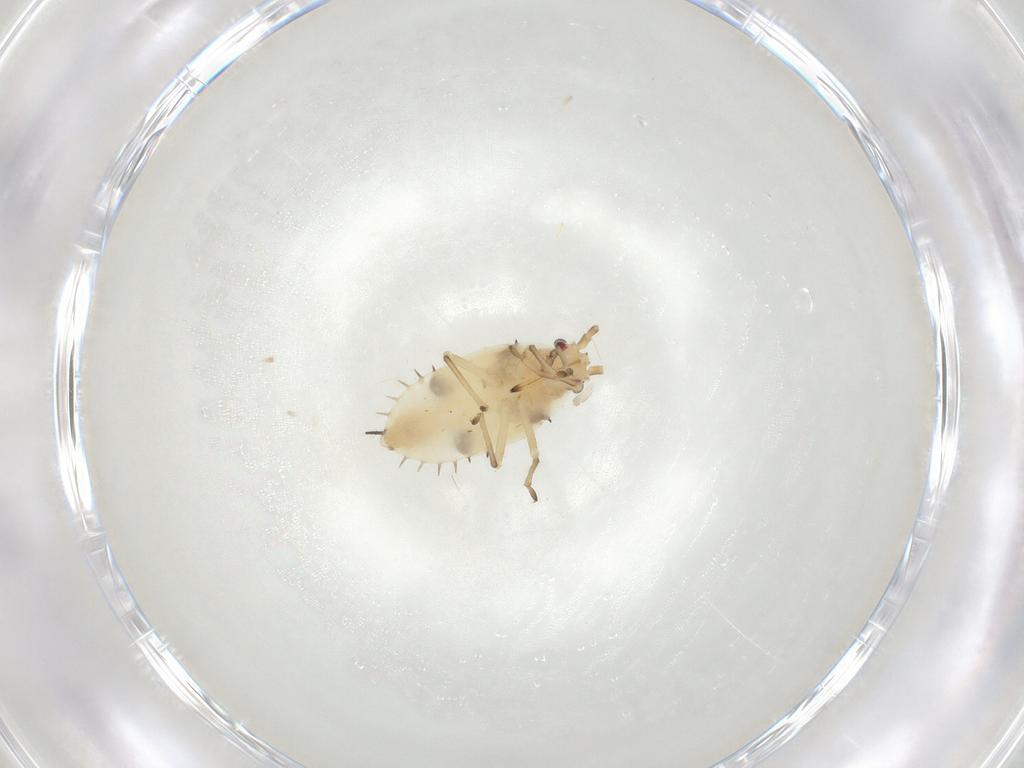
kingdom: Animalia
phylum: Arthropoda
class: Insecta
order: Hemiptera
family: Tingidae
